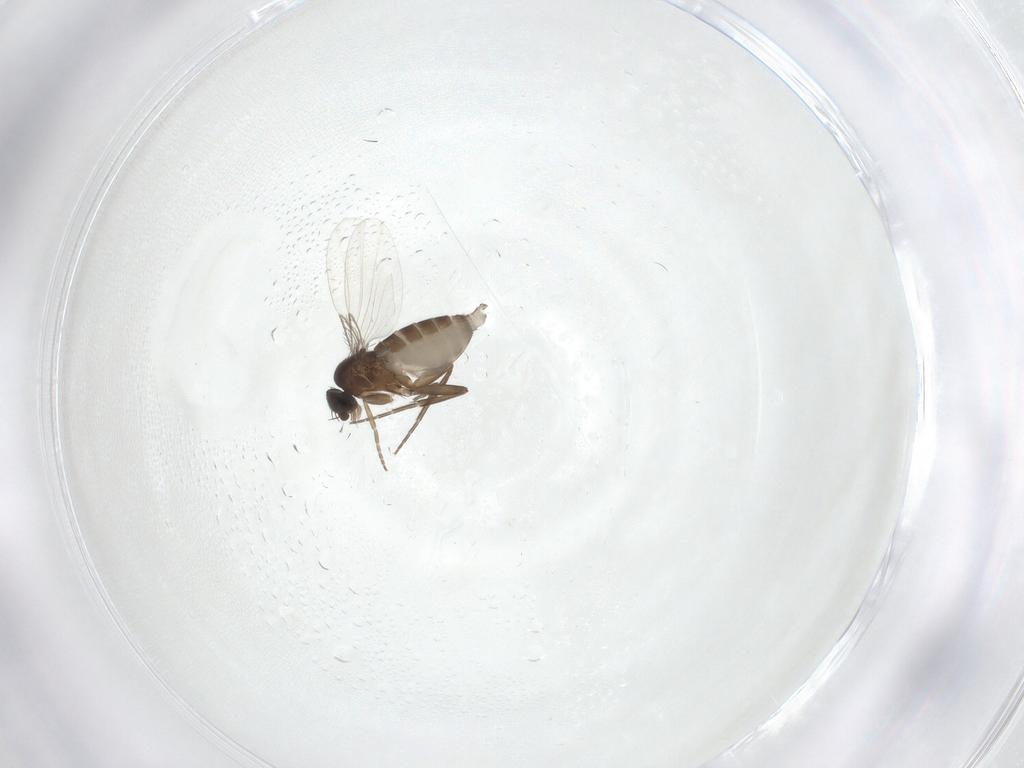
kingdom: Animalia
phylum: Arthropoda
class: Insecta
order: Diptera
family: Phoridae
